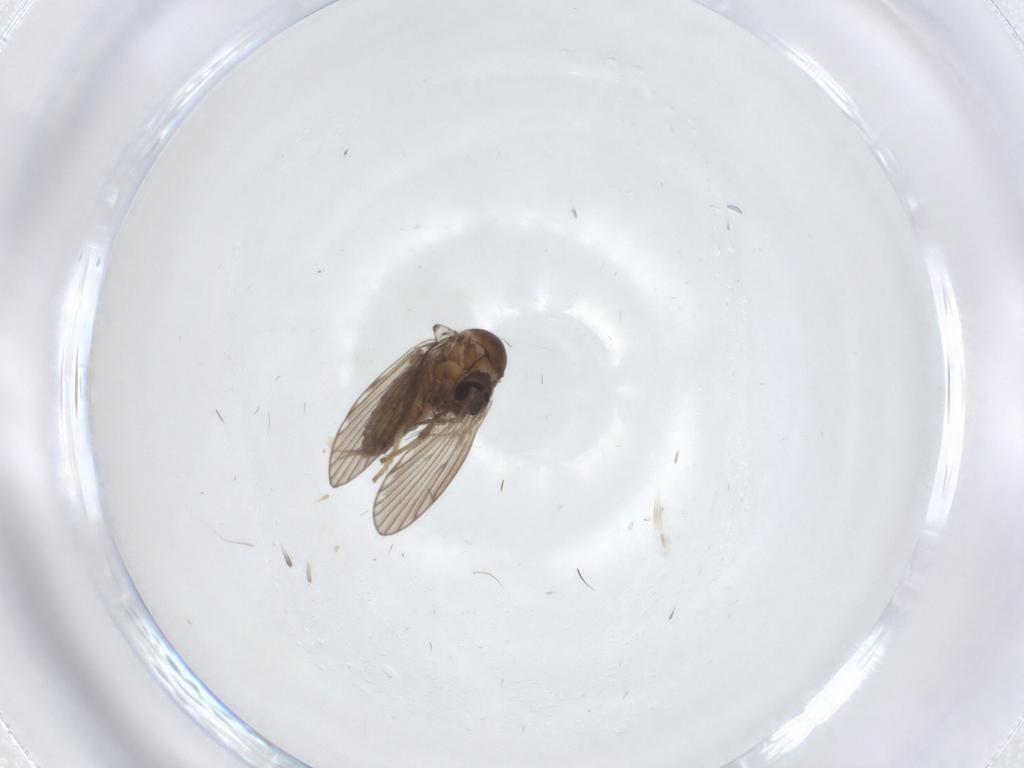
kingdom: Animalia
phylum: Arthropoda
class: Insecta
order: Diptera
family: Psychodidae
